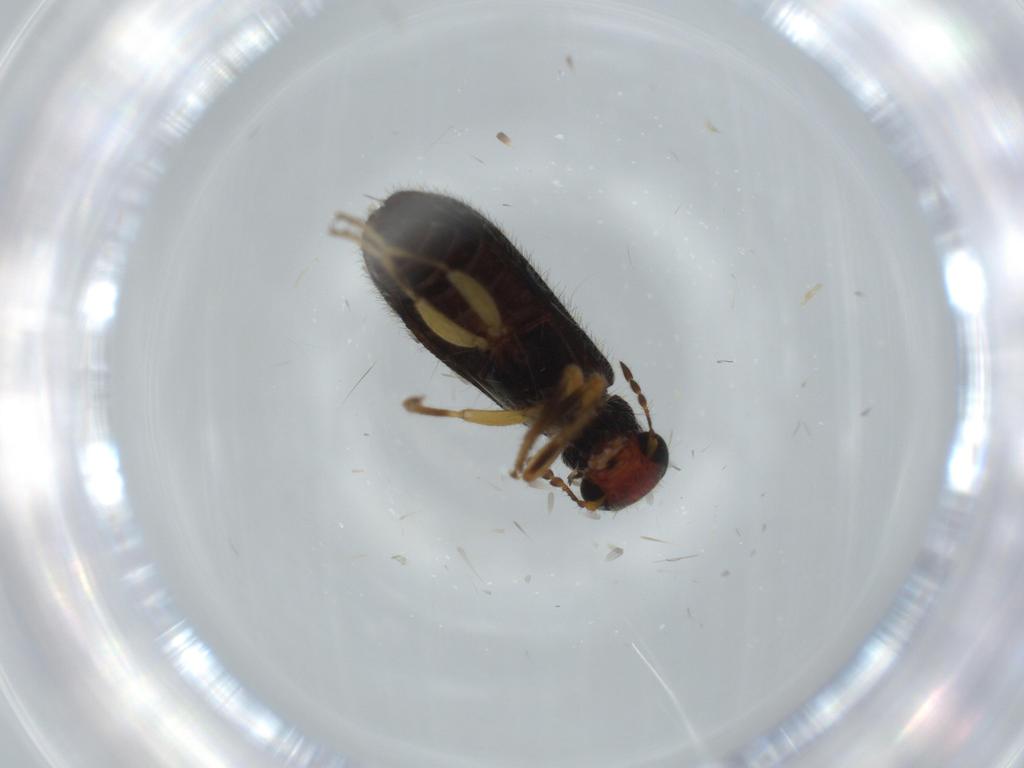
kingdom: Animalia
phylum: Arthropoda
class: Insecta
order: Coleoptera
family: Cleridae
